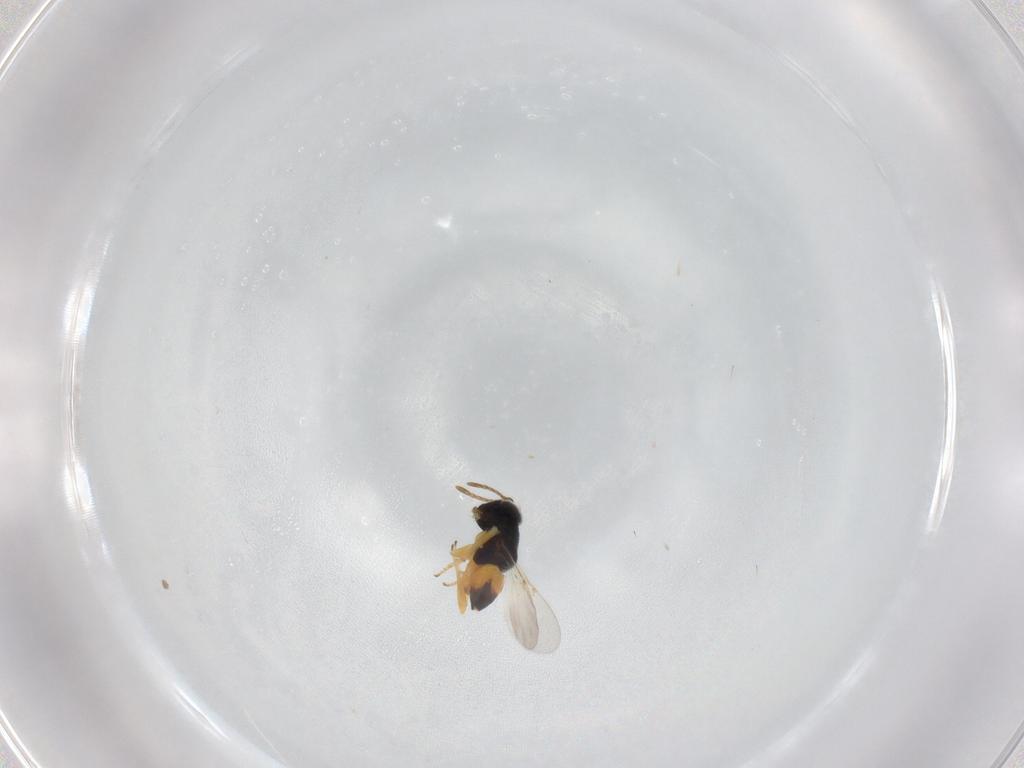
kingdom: Animalia
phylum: Arthropoda
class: Insecta
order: Hymenoptera
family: Encyrtidae
